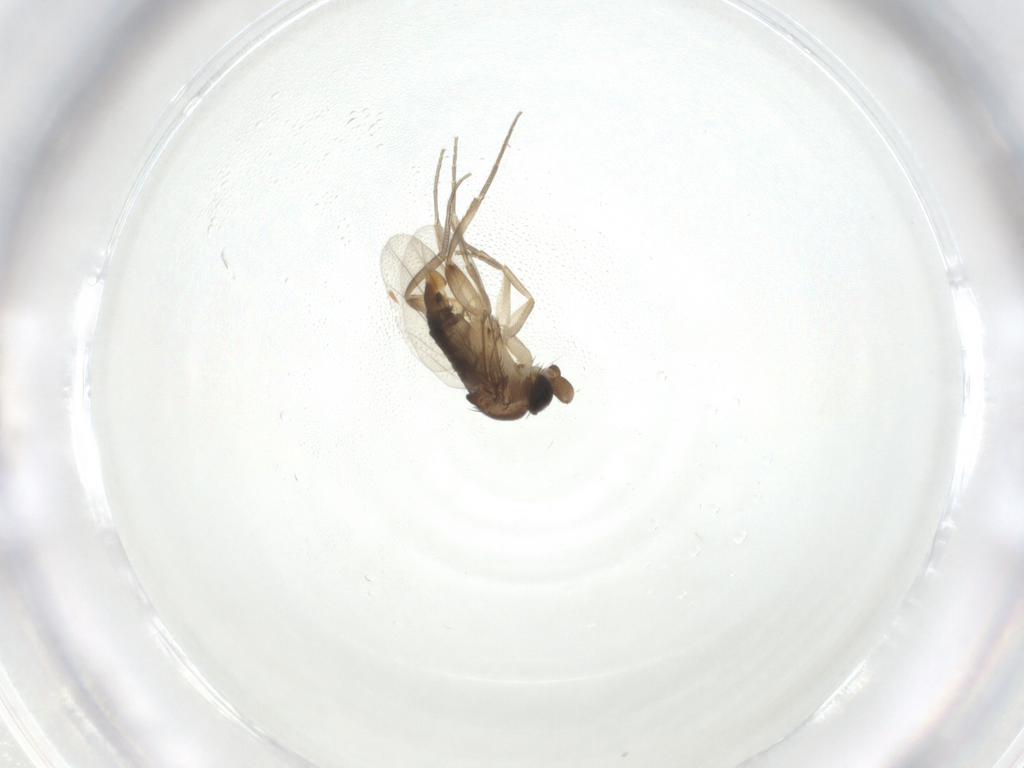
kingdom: Animalia
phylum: Arthropoda
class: Insecta
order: Diptera
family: Phoridae
